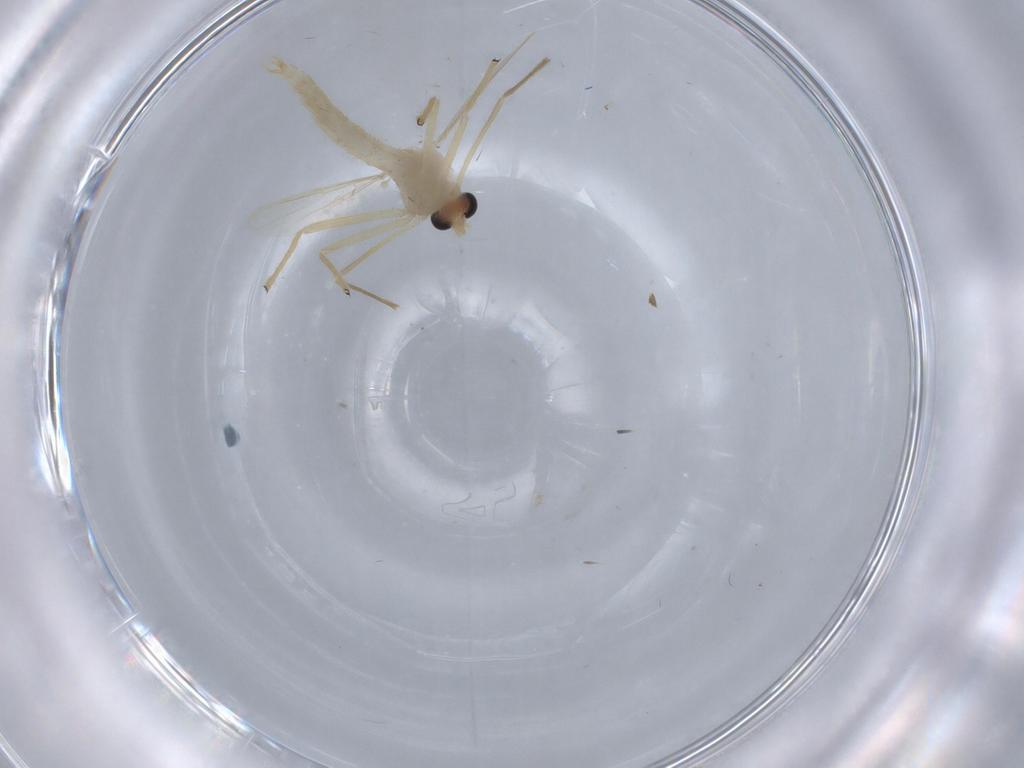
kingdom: Animalia
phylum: Arthropoda
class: Insecta
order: Diptera
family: Chironomidae
